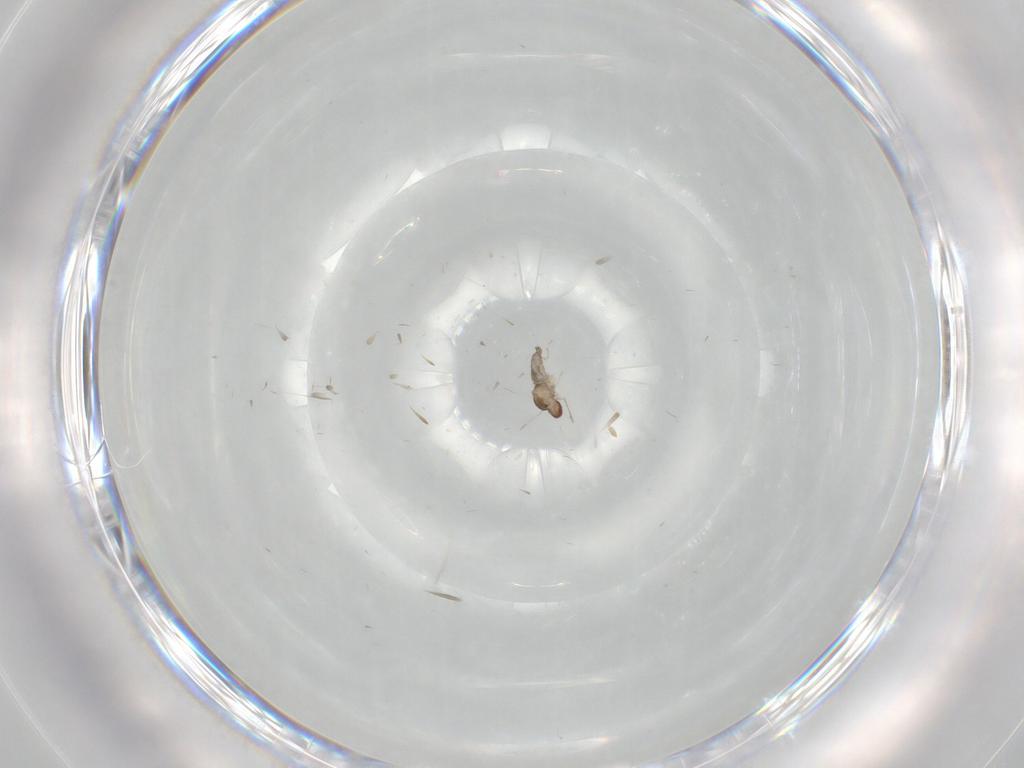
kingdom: Animalia
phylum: Arthropoda
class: Insecta
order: Diptera
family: Cecidomyiidae
